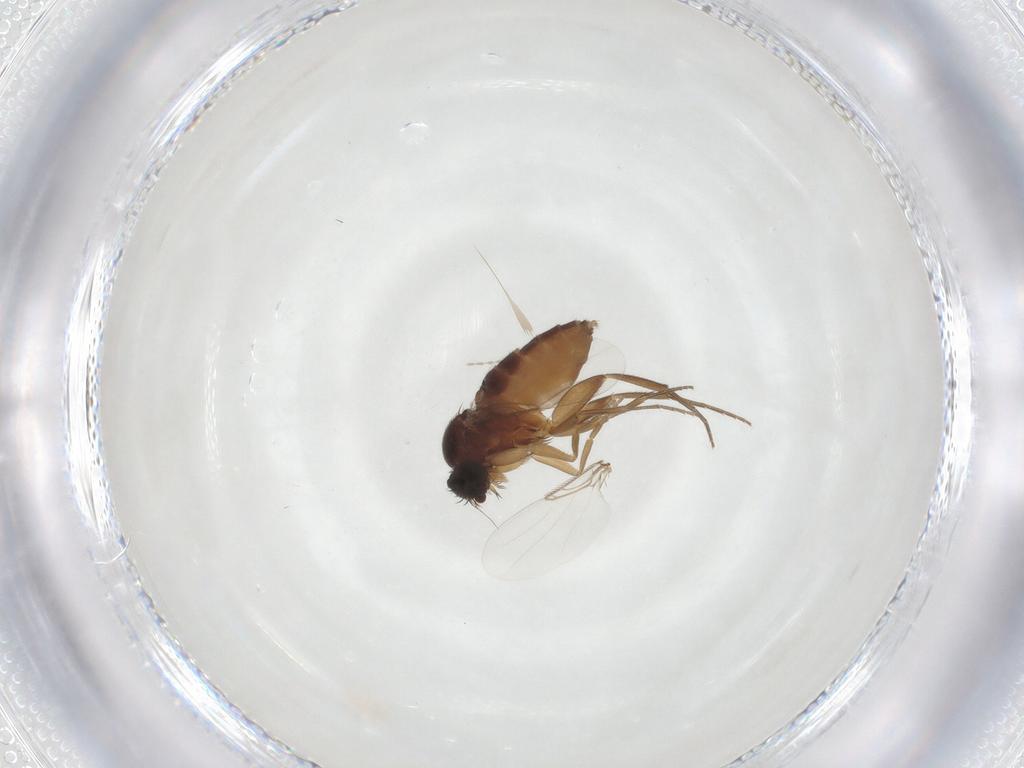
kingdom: Animalia
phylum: Arthropoda
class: Insecta
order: Diptera
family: Phoridae
